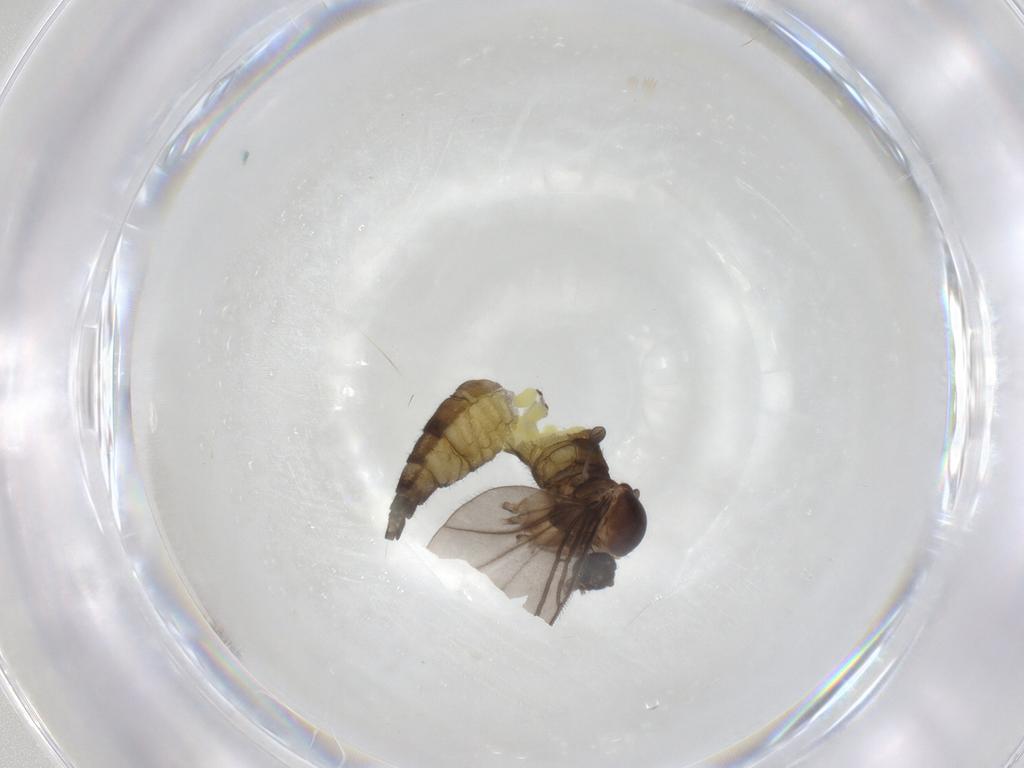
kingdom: Animalia
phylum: Arthropoda
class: Insecta
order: Diptera
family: Sciaridae
